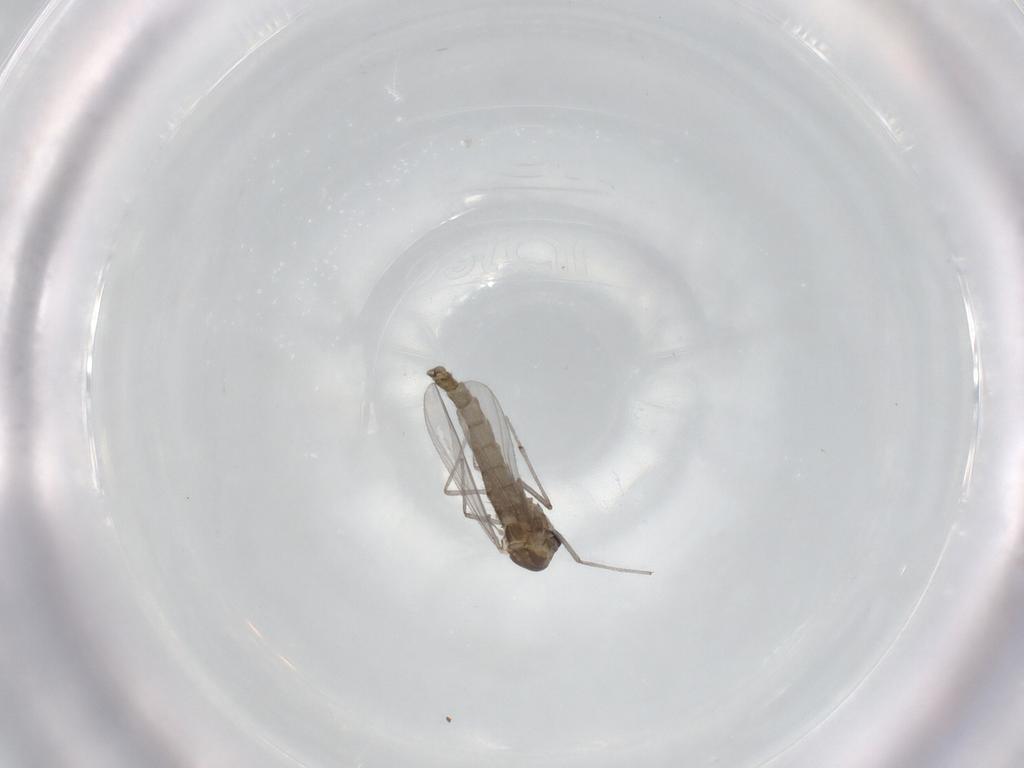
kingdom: Animalia
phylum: Arthropoda
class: Insecta
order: Diptera
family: Chironomidae
